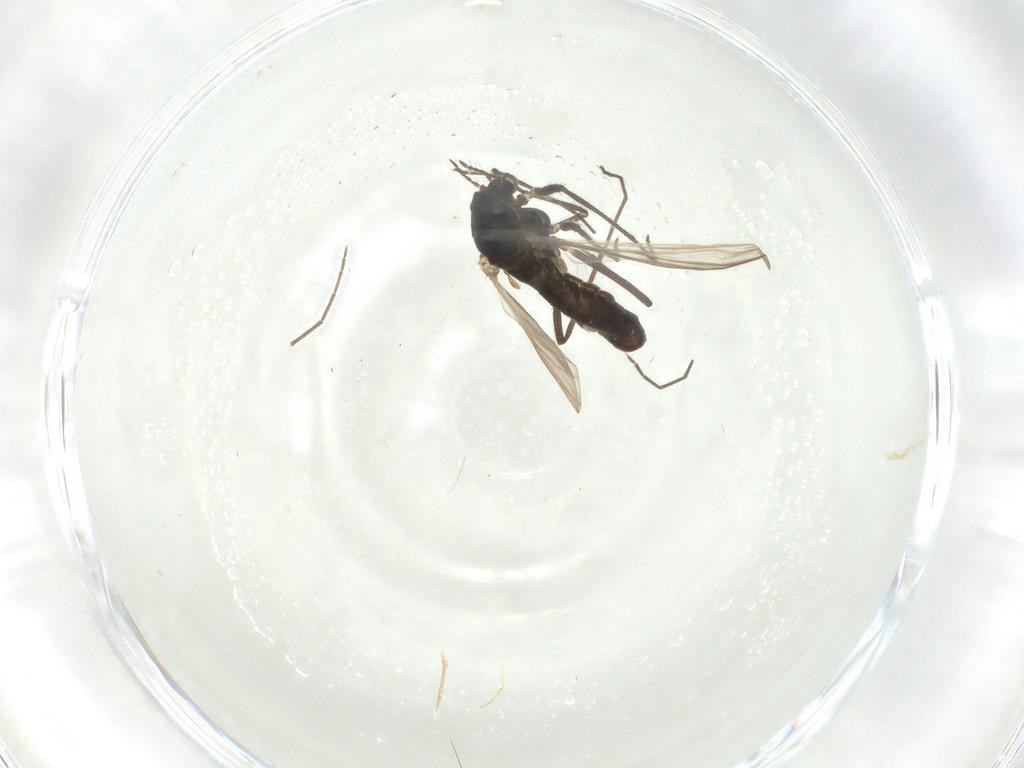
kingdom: Animalia
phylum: Arthropoda
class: Insecta
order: Diptera
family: Chironomidae
